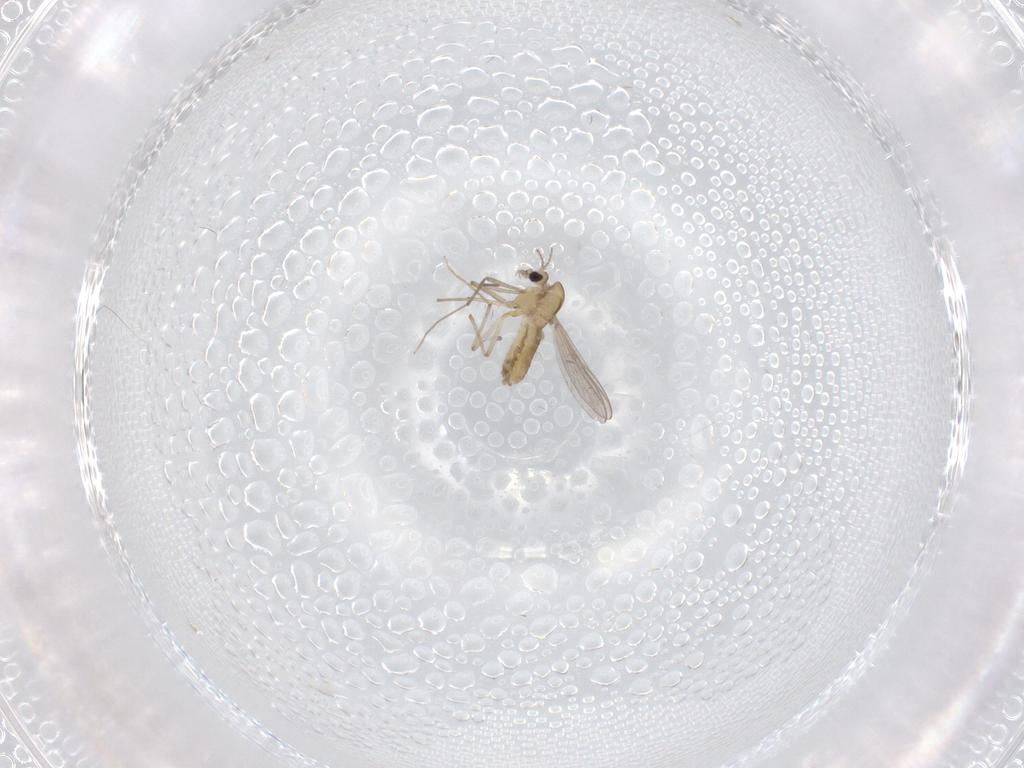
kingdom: Animalia
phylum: Arthropoda
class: Insecta
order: Diptera
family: Chironomidae
